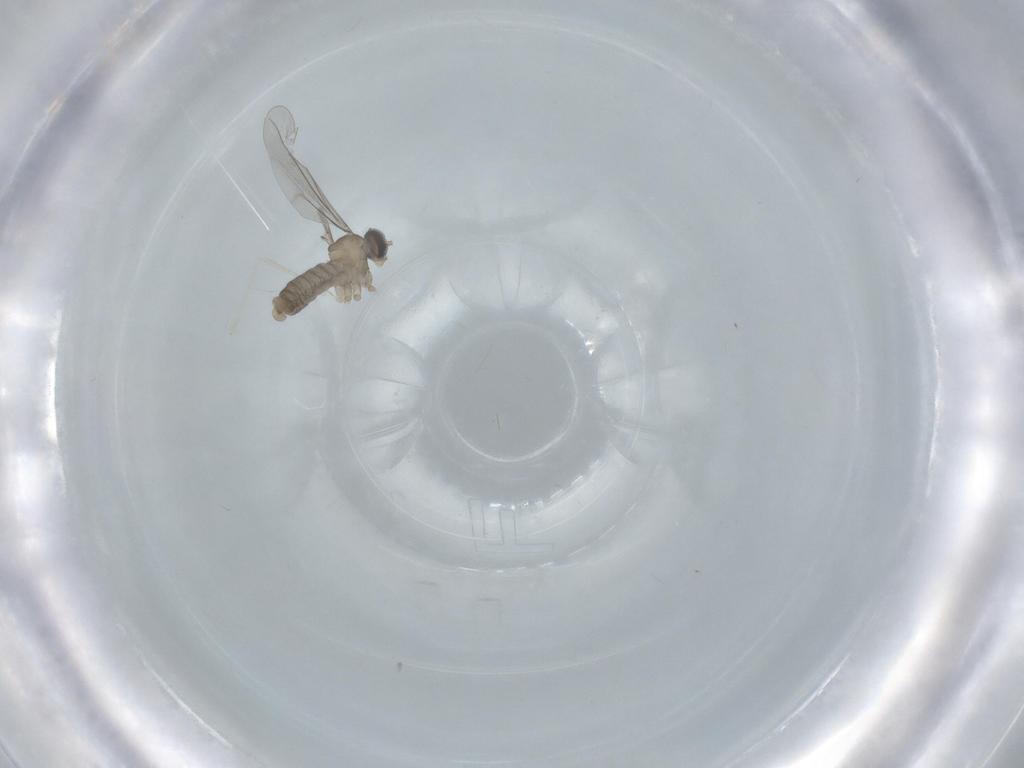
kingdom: Animalia
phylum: Arthropoda
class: Insecta
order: Diptera
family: Cecidomyiidae
